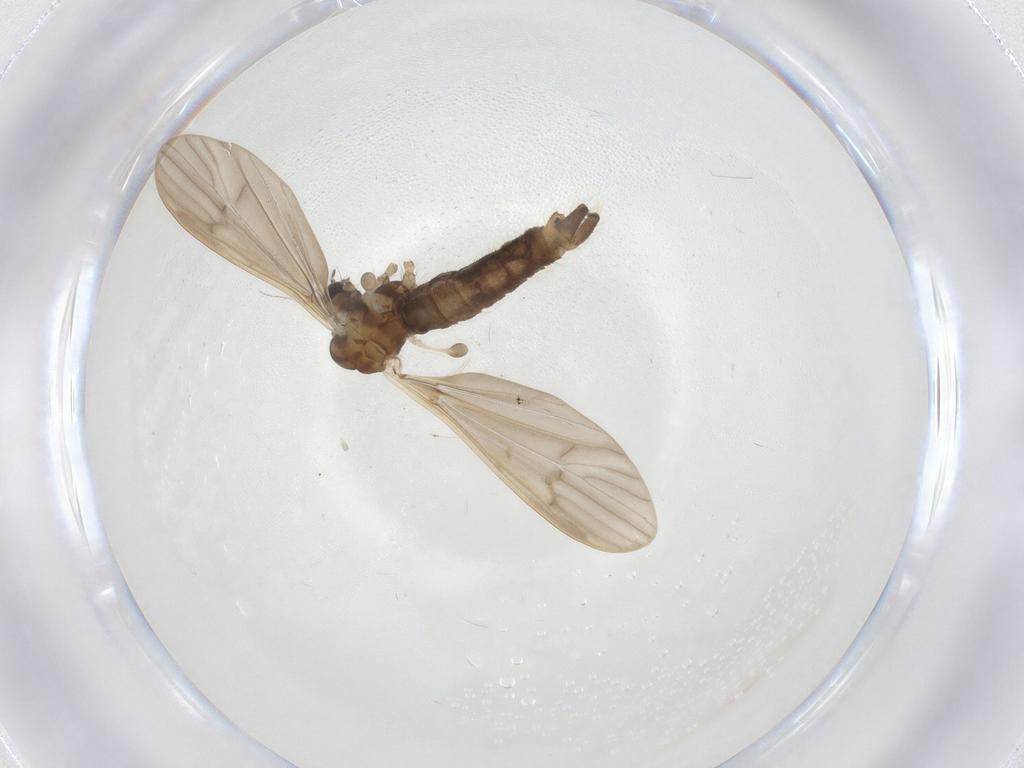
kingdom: Animalia
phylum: Arthropoda
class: Insecta
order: Diptera
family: Limoniidae
